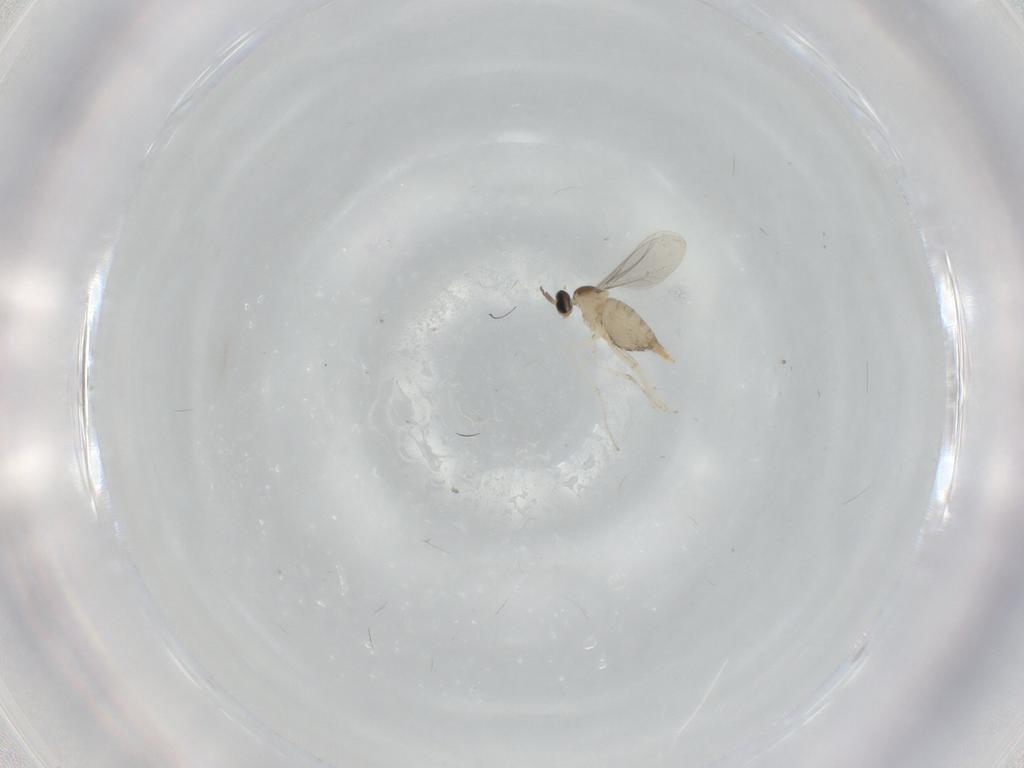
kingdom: Animalia
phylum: Arthropoda
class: Insecta
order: Diptera
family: Cecidomyiidae
